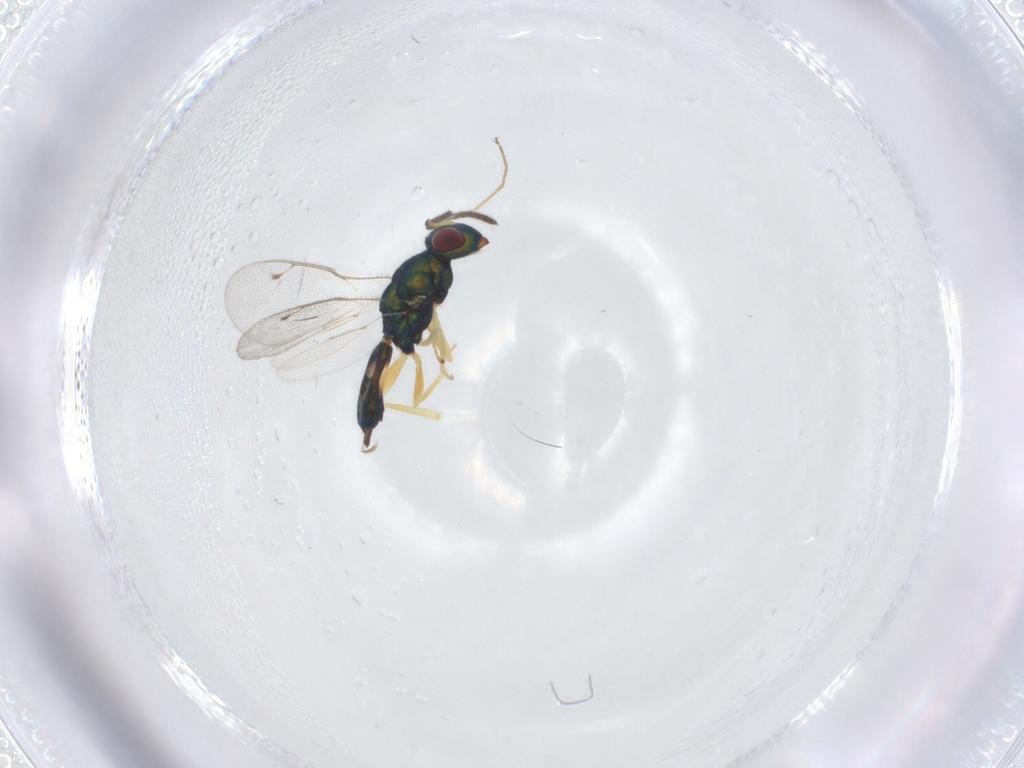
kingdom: Animalia
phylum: Arthropoda
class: Insecta
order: Hymenoptera
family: Pteromalidae
